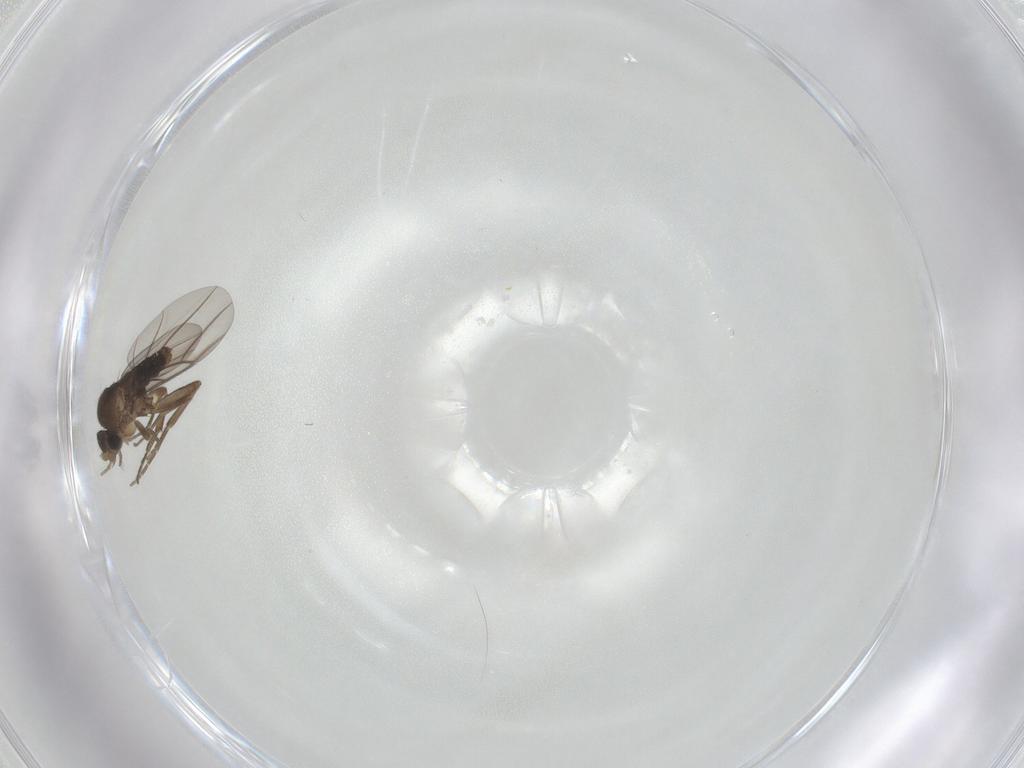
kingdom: Animalia
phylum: Arthropoda
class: Insecta
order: Diptera
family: Phoridae
